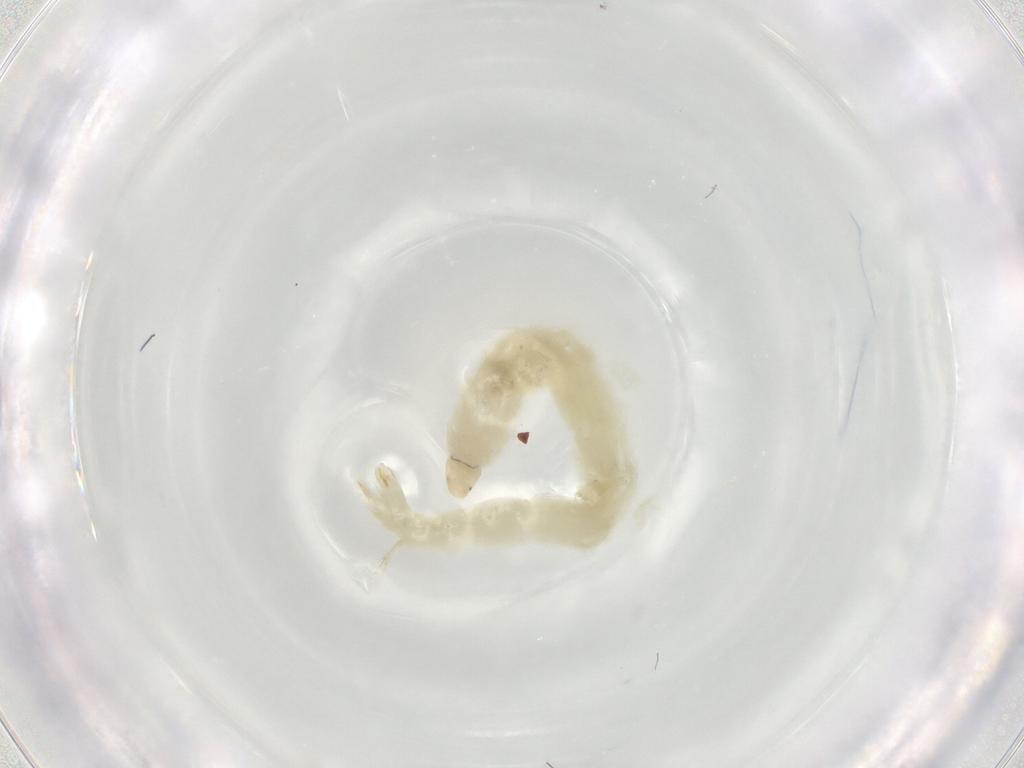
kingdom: Animalia
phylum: Arthropoda
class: Insecta
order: Diptera
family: Chironomidae
